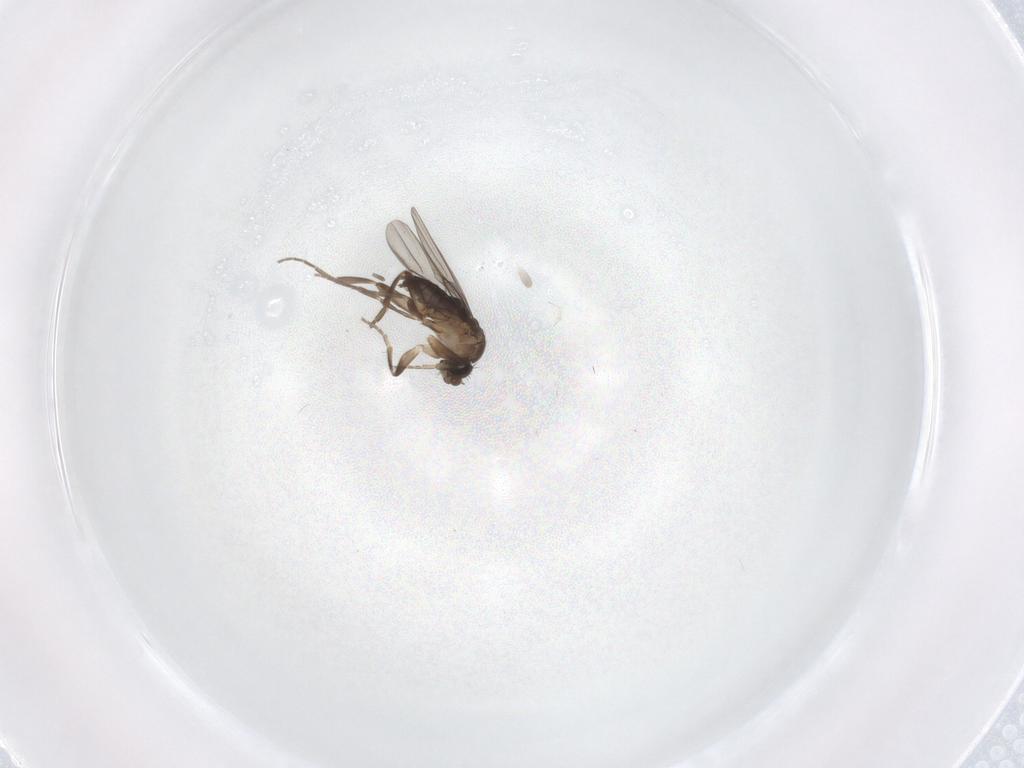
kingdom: Animalia
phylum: Arthropoda
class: Insecta
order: Diptera
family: Phoridae
